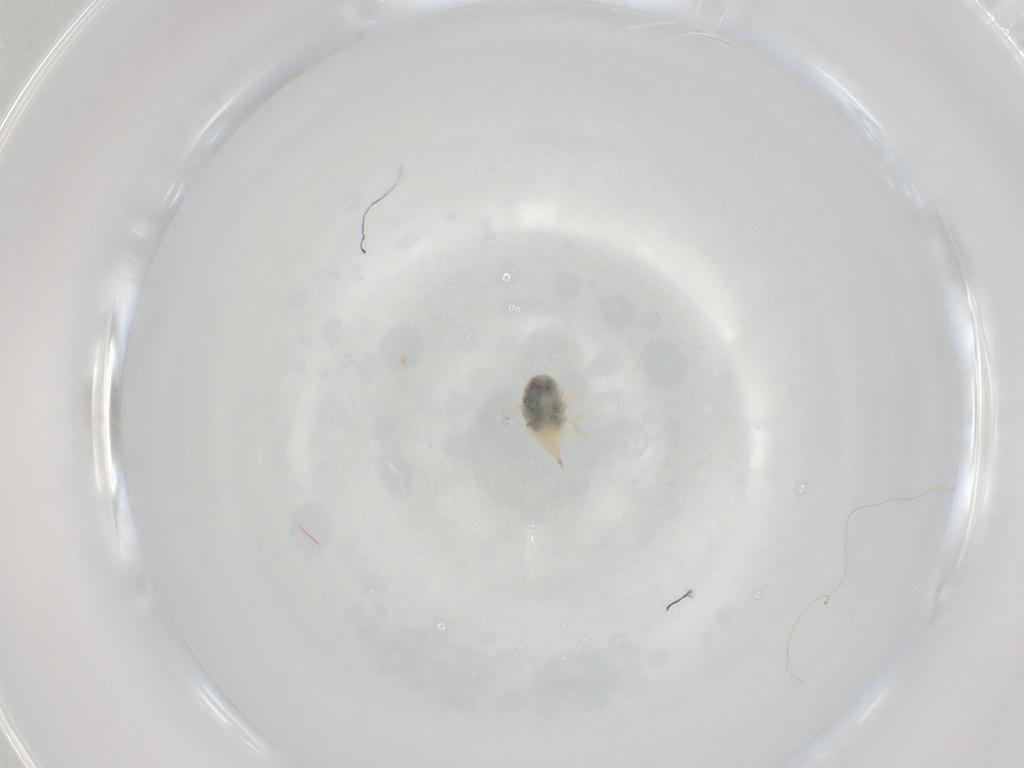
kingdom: Animalia
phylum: Arthropoda
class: Arachnida
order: Trombidiformes
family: Bdellidae
